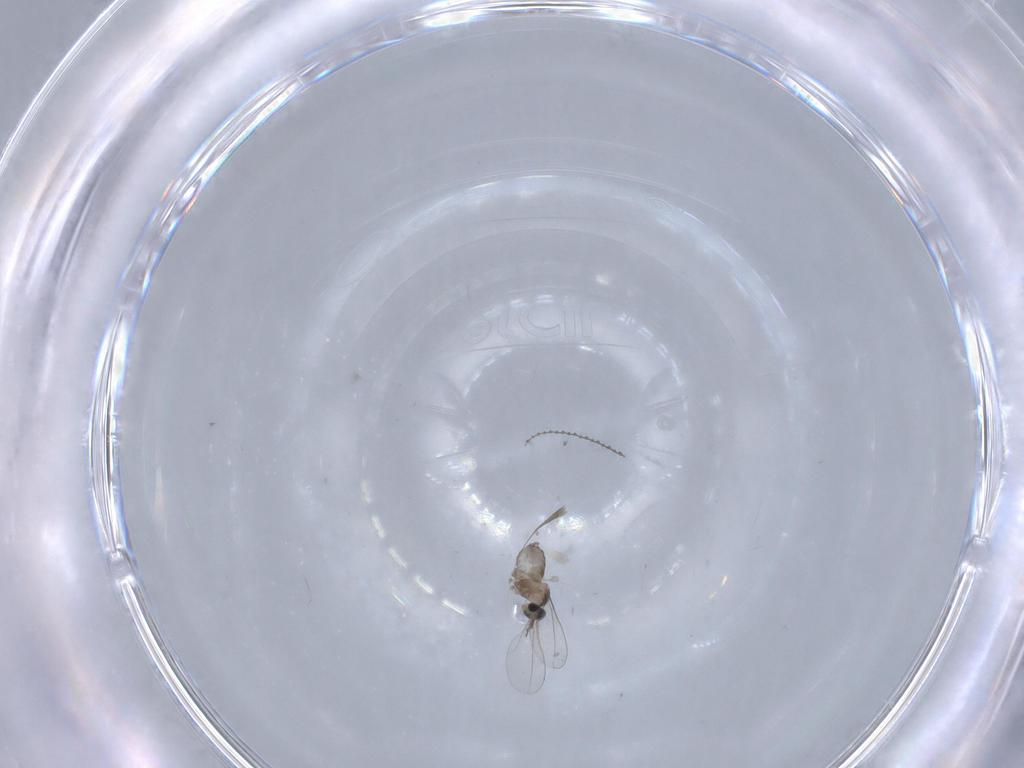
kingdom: Animalia
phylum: Arthropoda
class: Insecta
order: Diptera
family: Cecidomyiidae
